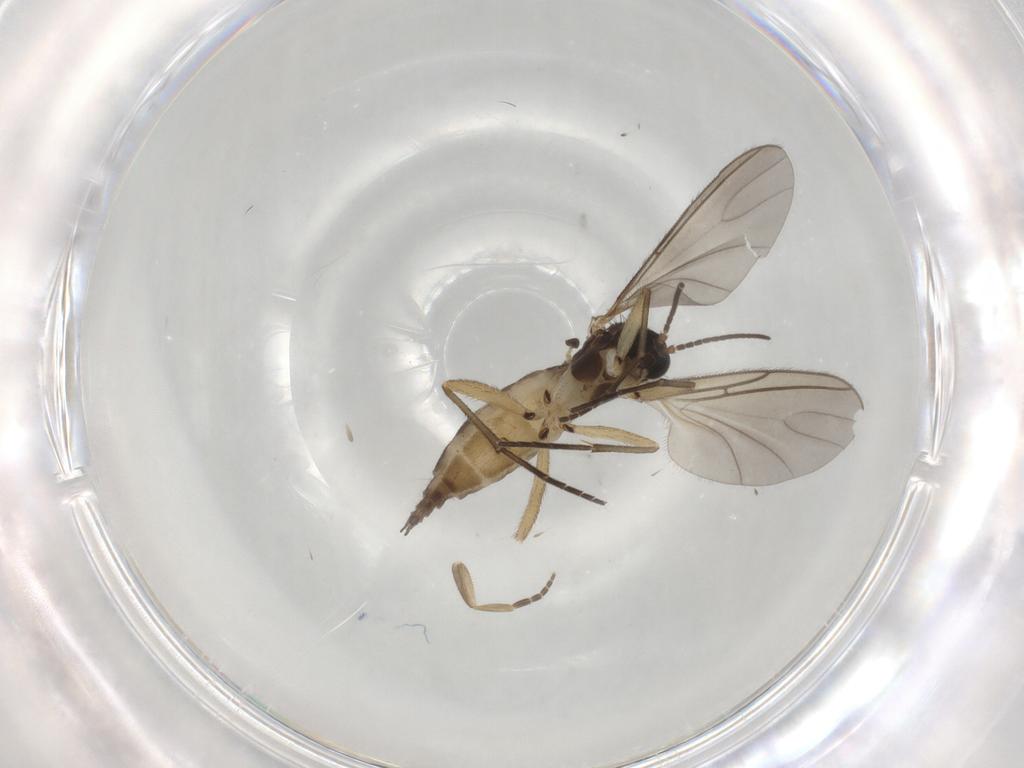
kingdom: Animalia
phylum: Arthropoda
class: Insecta
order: Diptera
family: Sciaridae
